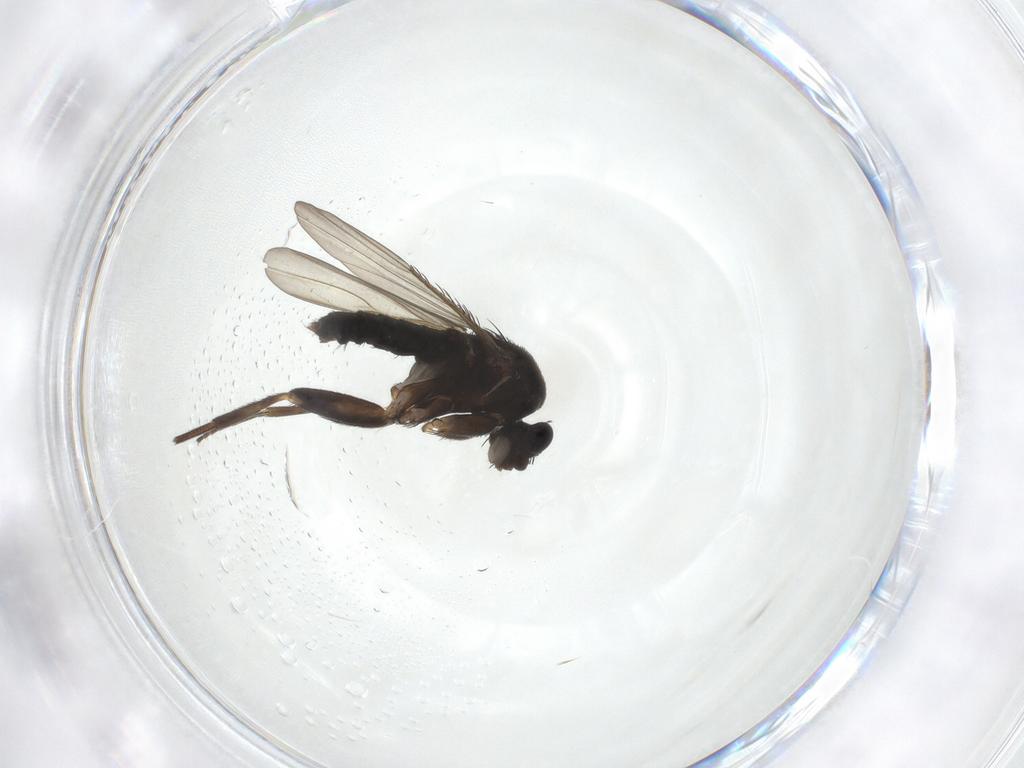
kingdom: Animalia
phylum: Arthropoda
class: Insecta
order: Diptera
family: Phoridae
